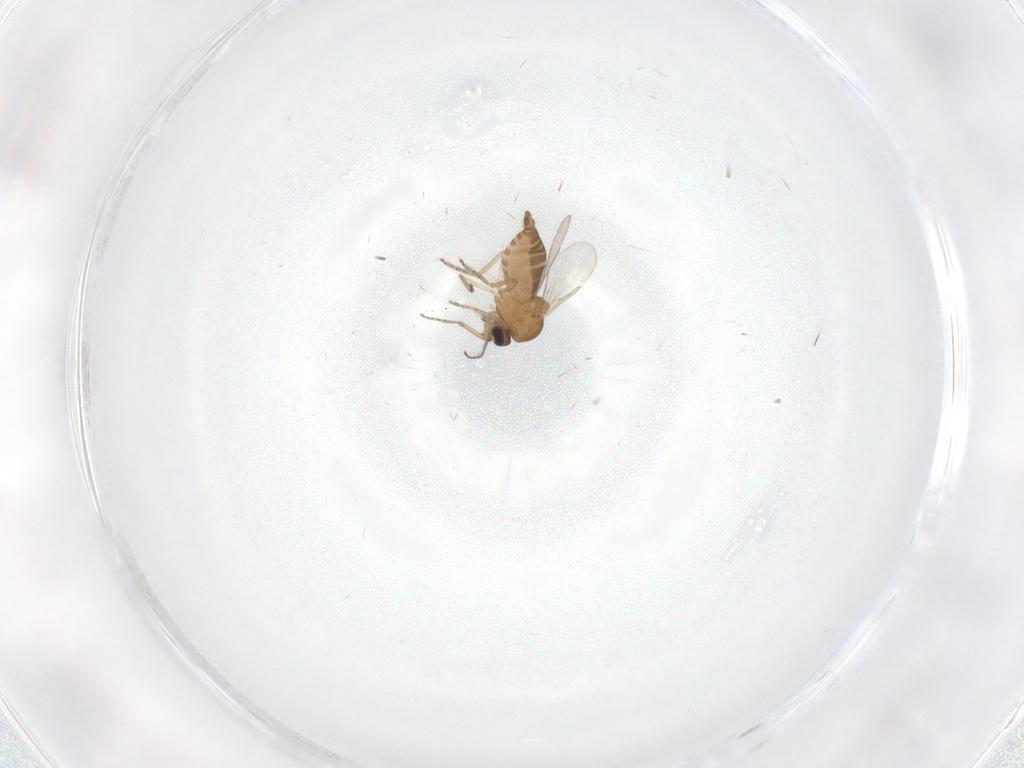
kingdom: Animalia
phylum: Arthropoda
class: Insecta
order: Diptera
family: Ceratopogonidae
